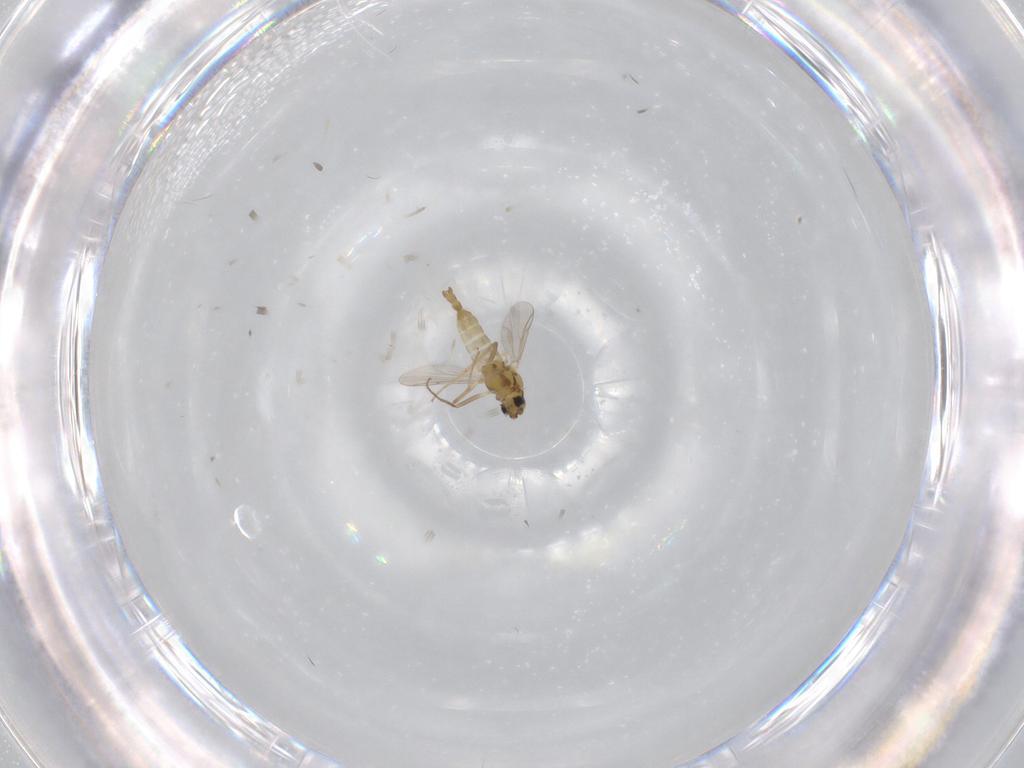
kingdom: Animalia
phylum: Arthropoda
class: Insecta
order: Diptera
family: Chironomidae
